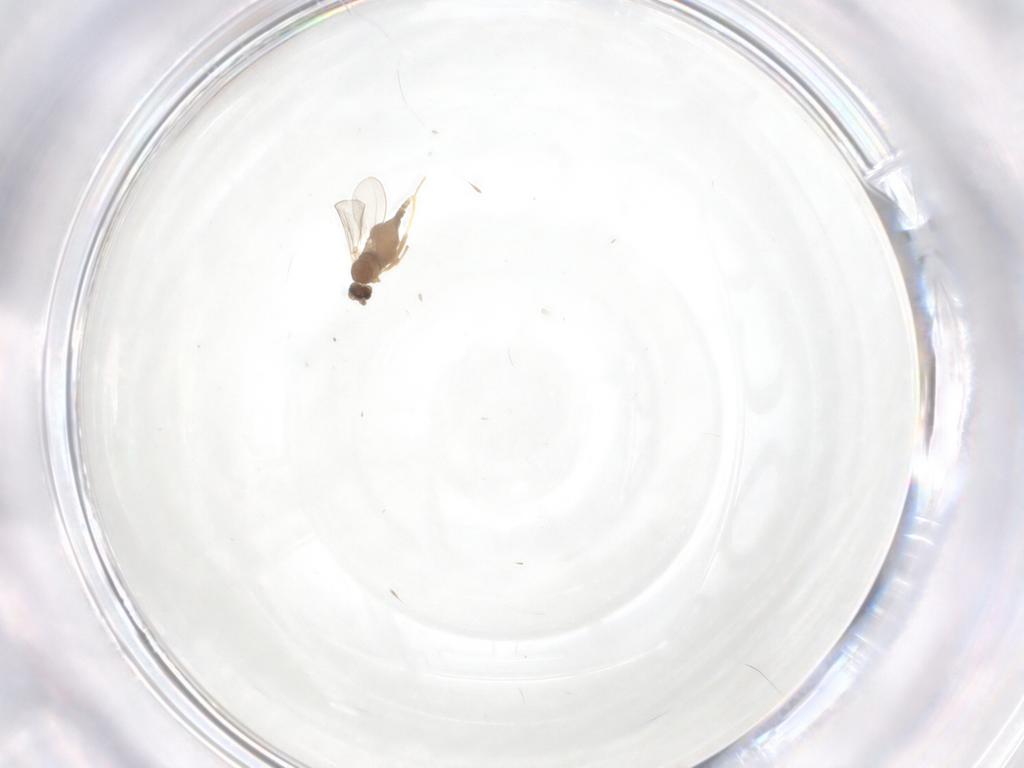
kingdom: Animalia
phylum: Arthropoda
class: Insecta
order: Diptera
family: Cecidomyiidae
